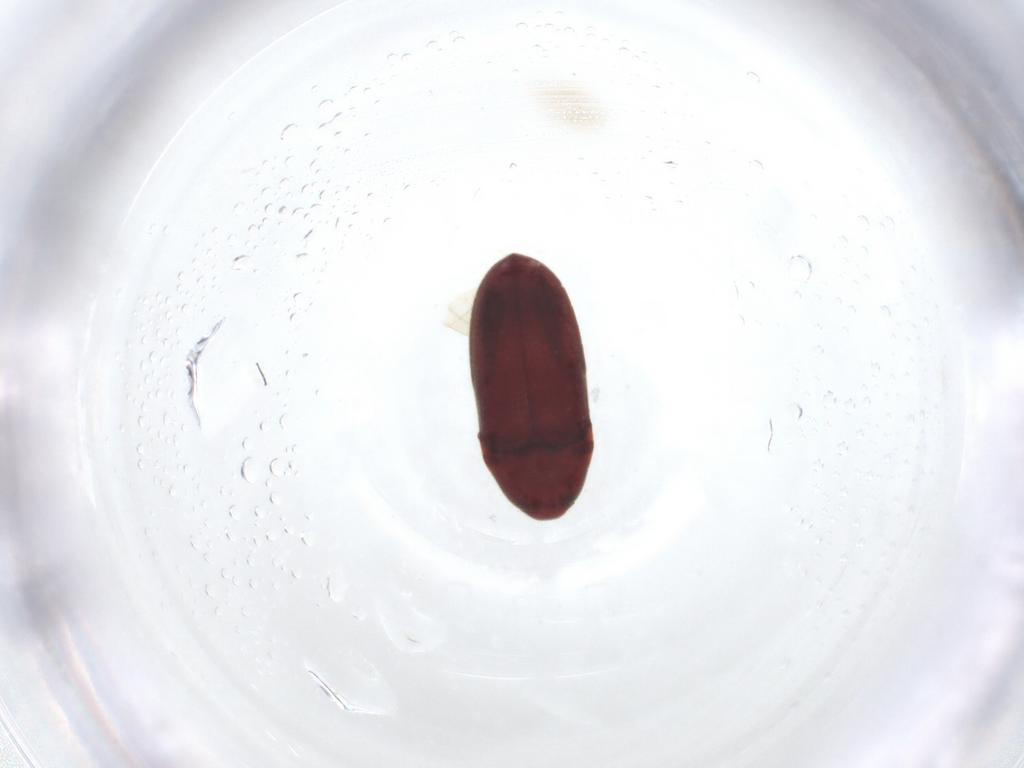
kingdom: Animalia
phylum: Arthropoda
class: Insecta
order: Coleoptera
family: Throscidae
